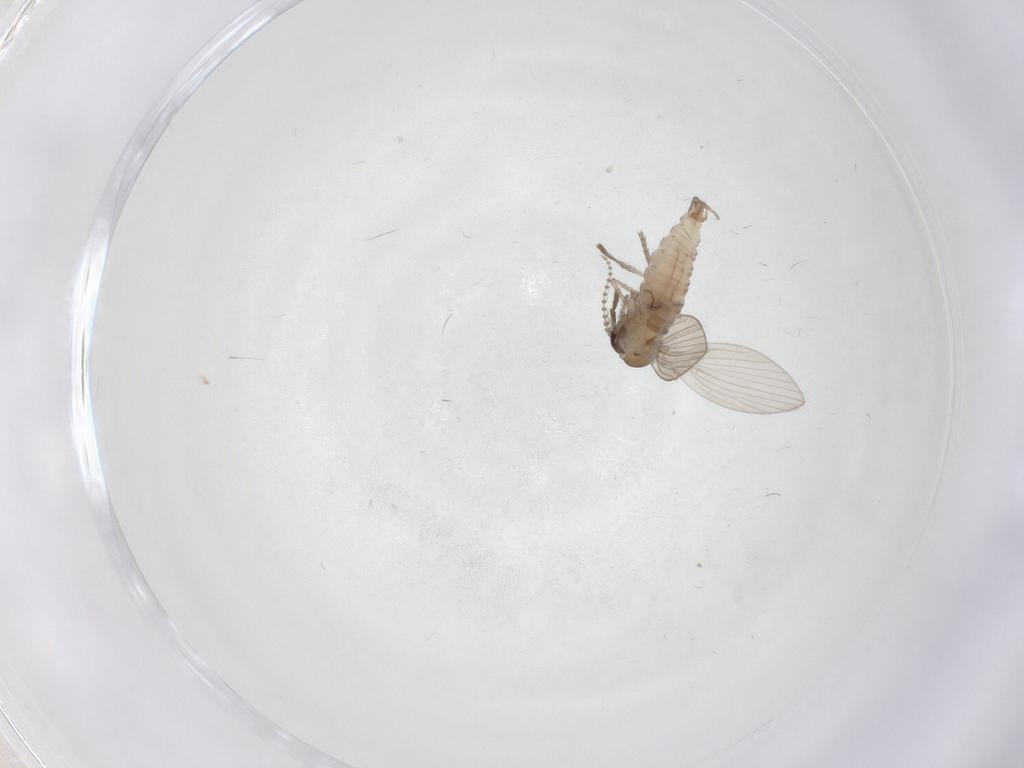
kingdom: Animalia
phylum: Arthropoda
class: Insecta
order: Diptera
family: Psychodidae
